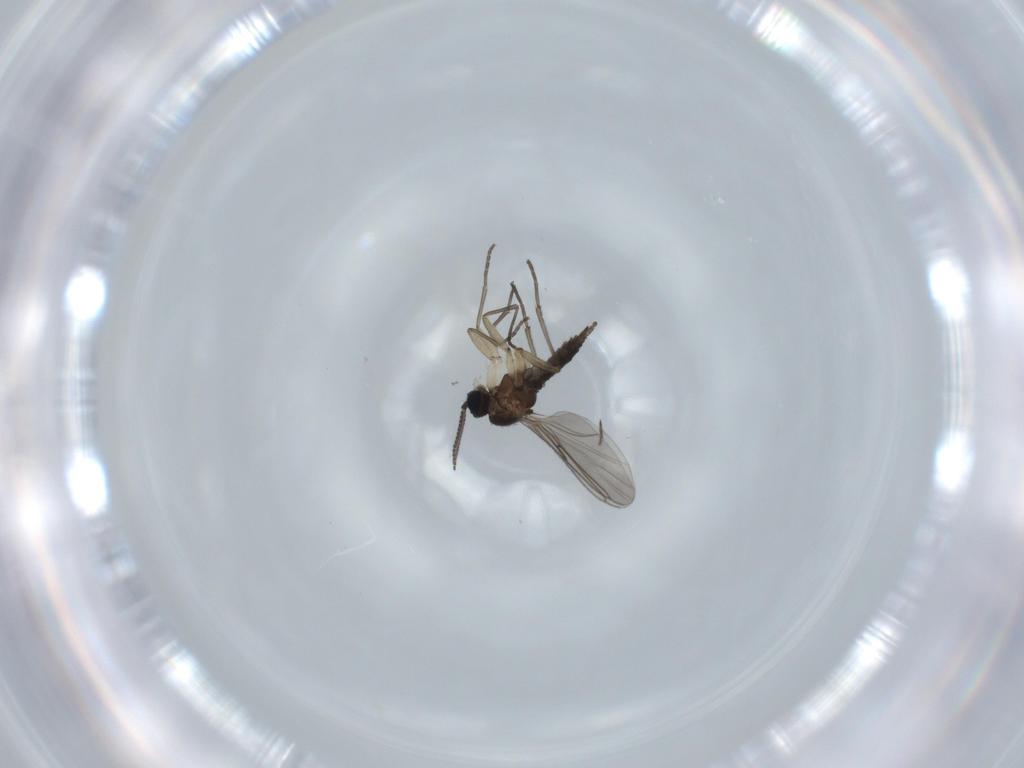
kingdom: Animalia
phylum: Arthropoda
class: Insecta
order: Diptera
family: Sciaridae
